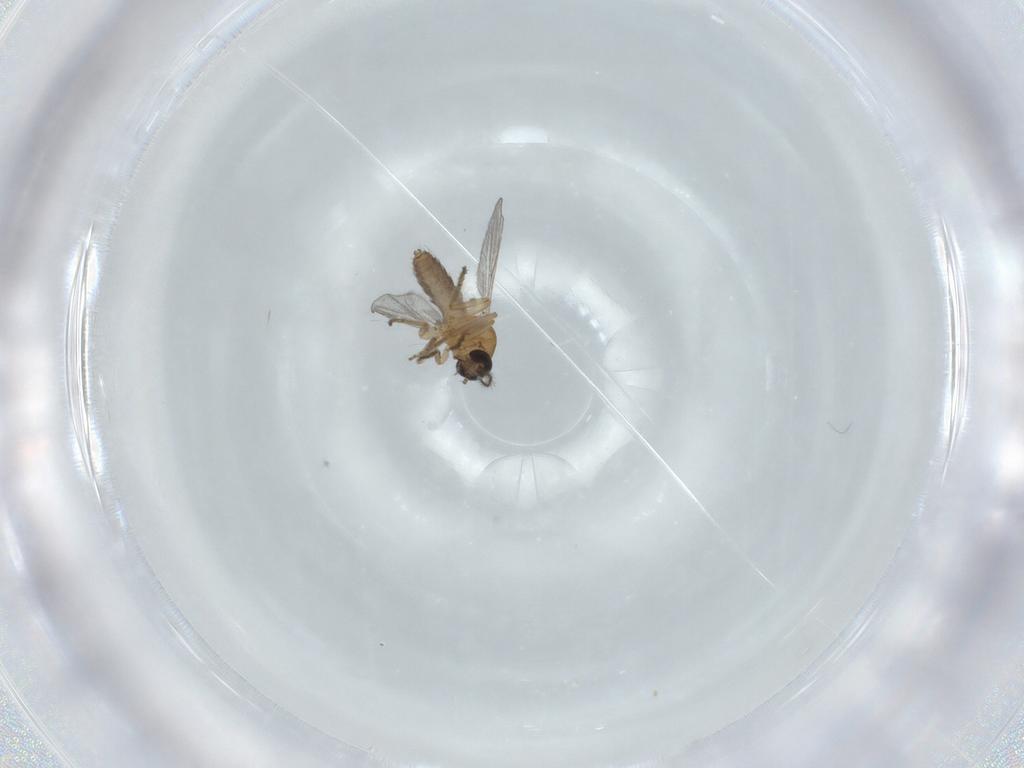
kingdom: Animalia
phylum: Arthropoda
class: Insecta
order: Diptera
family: Ceratopogonidae
